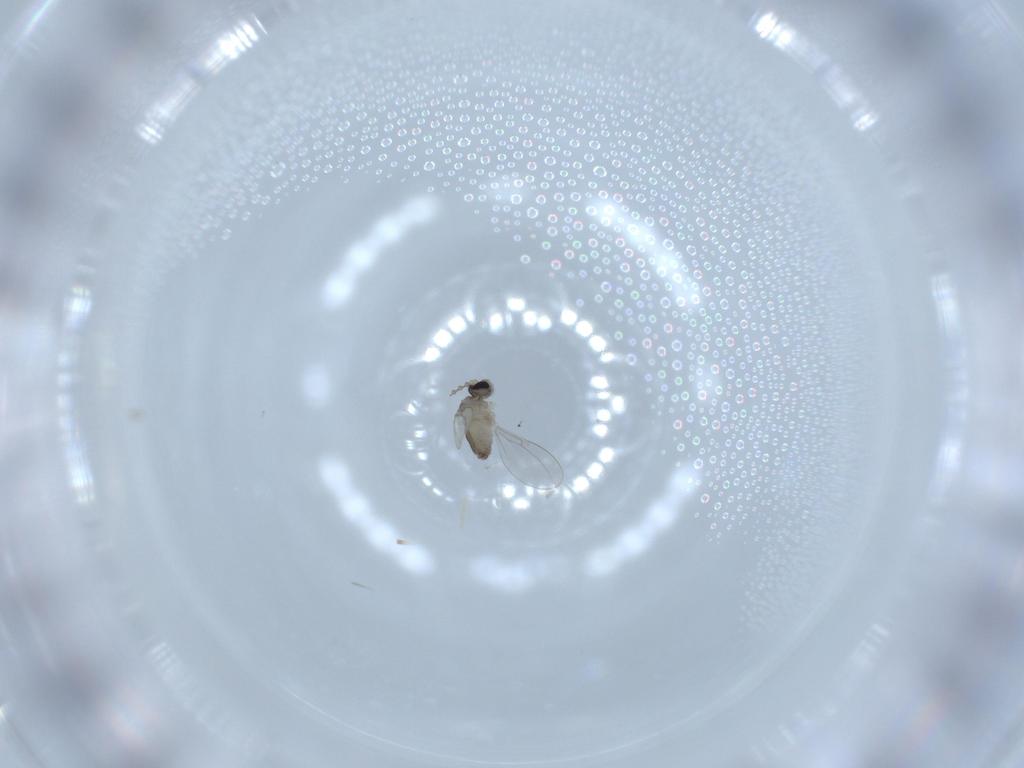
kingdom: Animalia
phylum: Arthropoda
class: Insecta
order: Diptera
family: Cecidomyiidae
